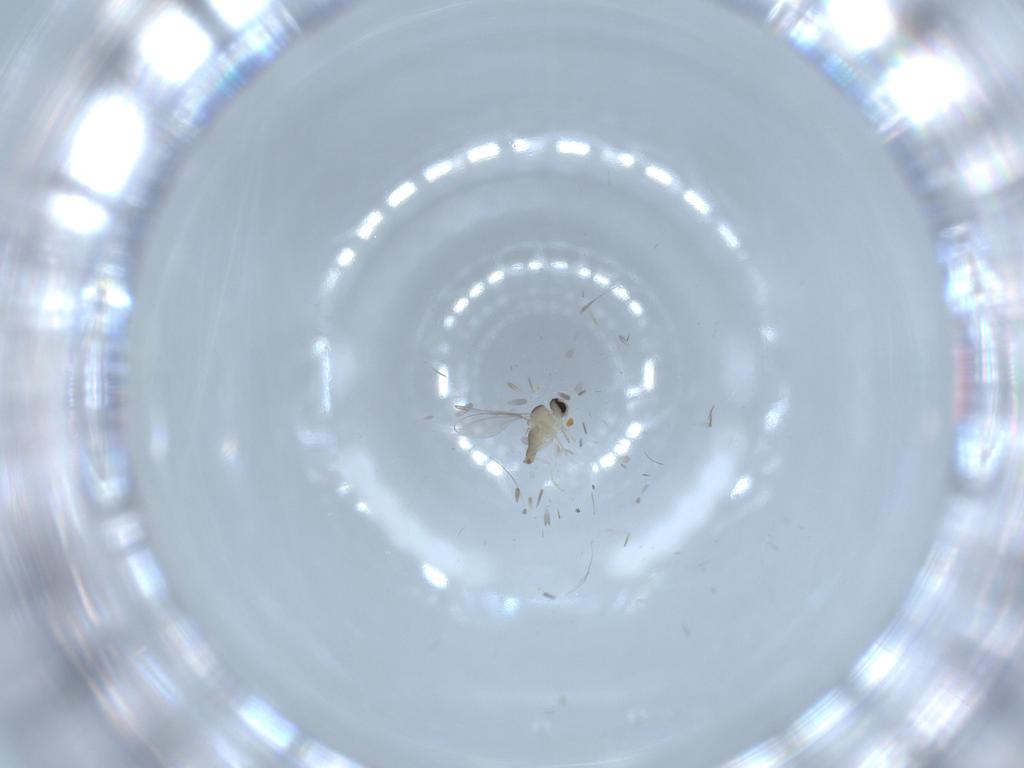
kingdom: Animalia
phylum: Arthropoda
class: Insecta
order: Diptera
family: Cecidomyiidae
